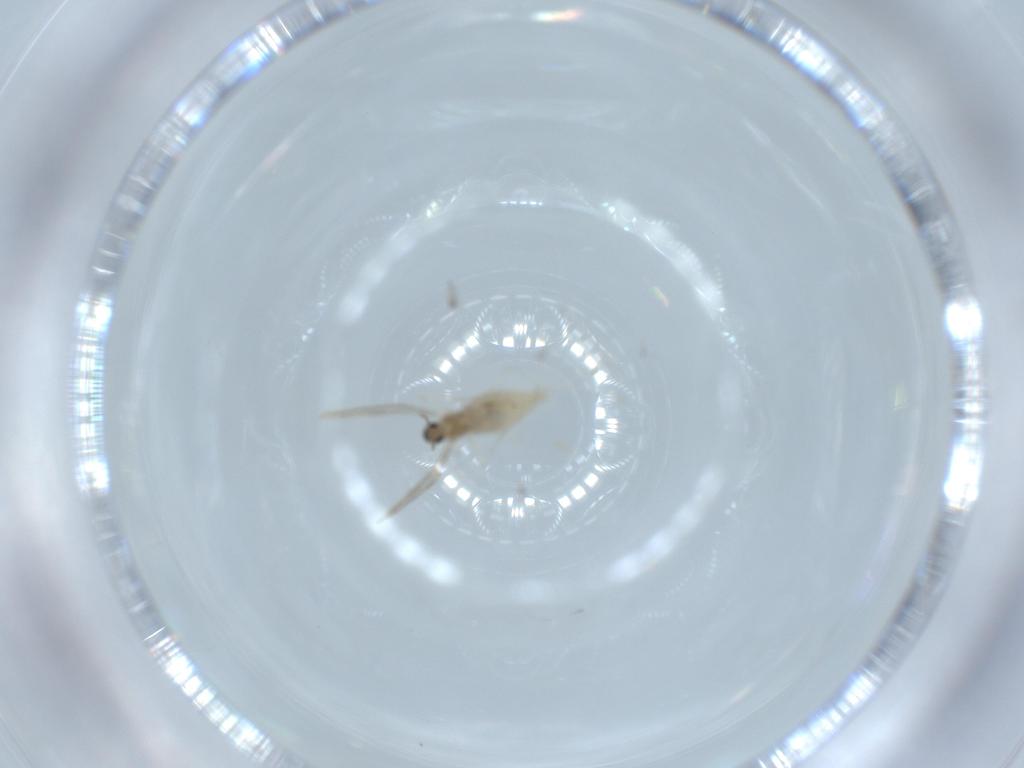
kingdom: Animalia
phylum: Arthropoda
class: Insecta
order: Diptera
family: Cecidomyiidae
